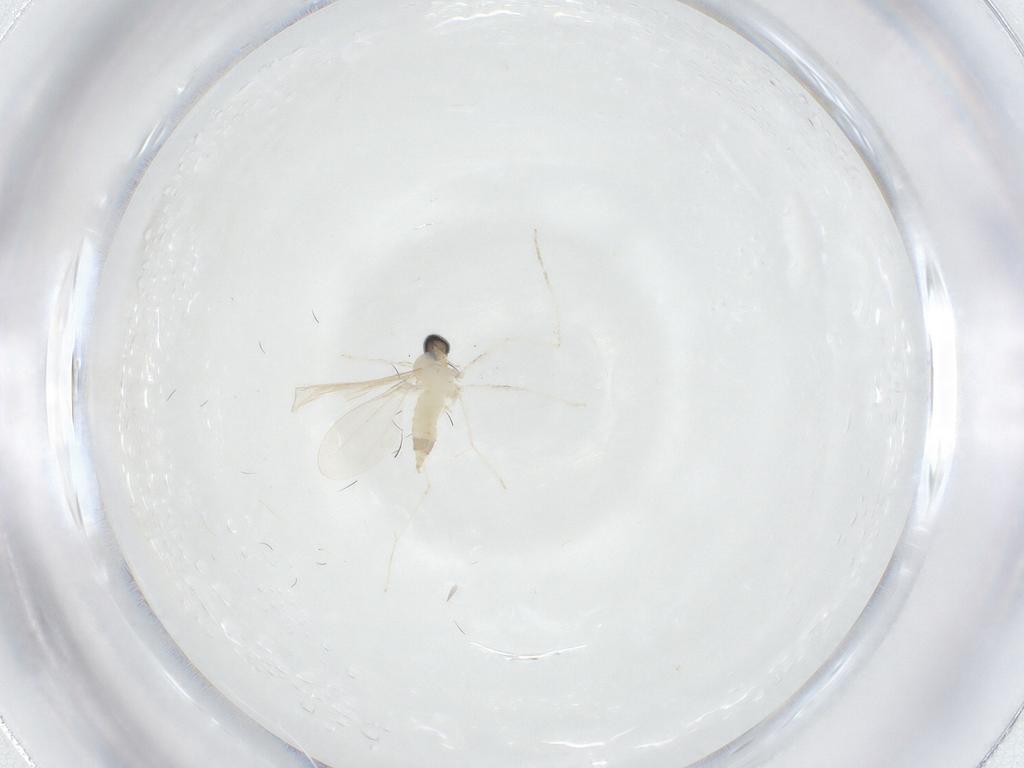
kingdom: Animalia
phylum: Arthropoda
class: Insecta
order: Diptera
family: Cecidomyiidae
